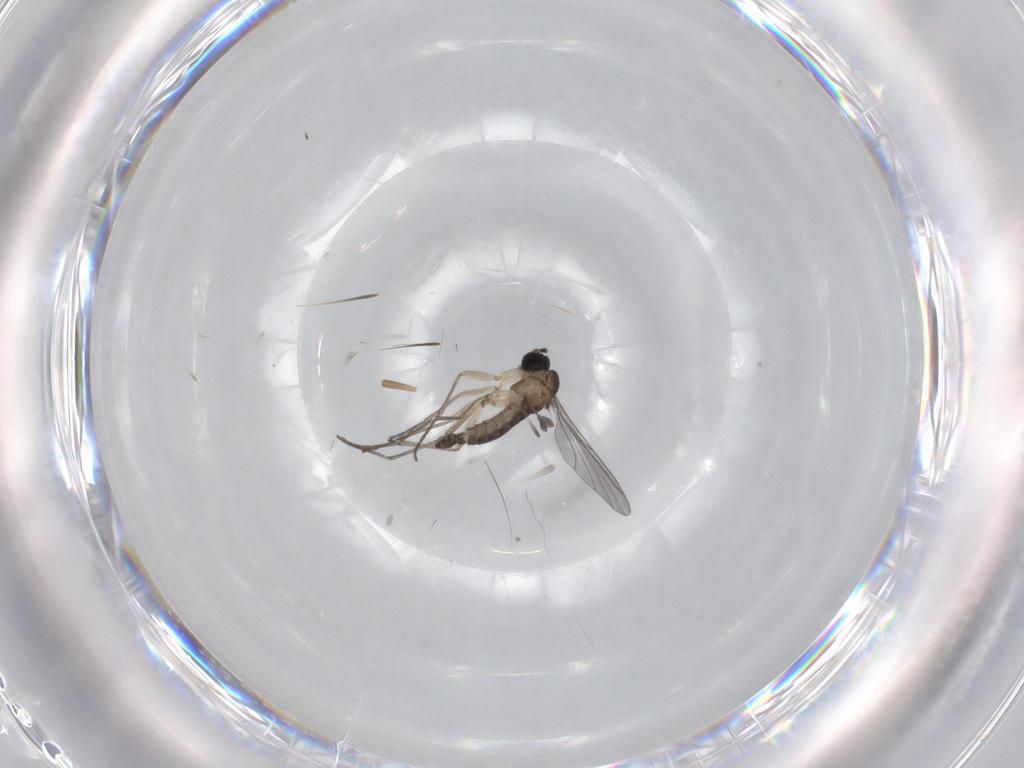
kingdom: Animalia
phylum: Arthropoda
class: Insecta
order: Diptera
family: Sciaridae
